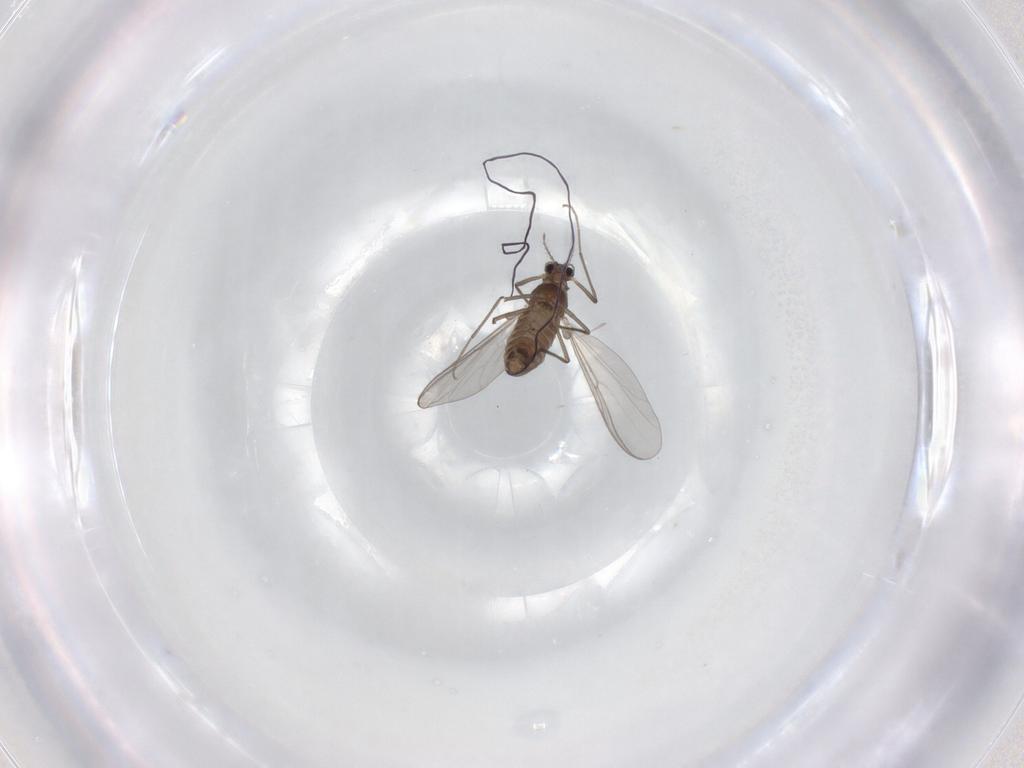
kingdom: Animalia
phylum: Arthropoda
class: Insecta
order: Diptera
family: Chironomidae
